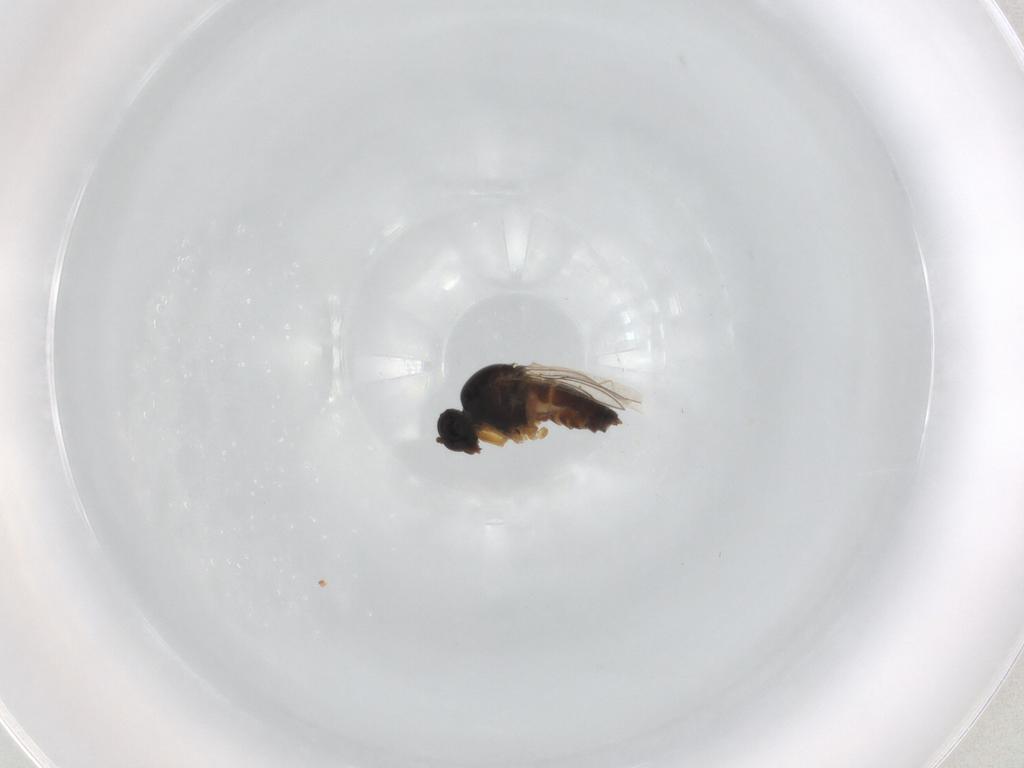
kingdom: Animalia
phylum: Arthropoda
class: Insecta
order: Diptera
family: Hybotidae
